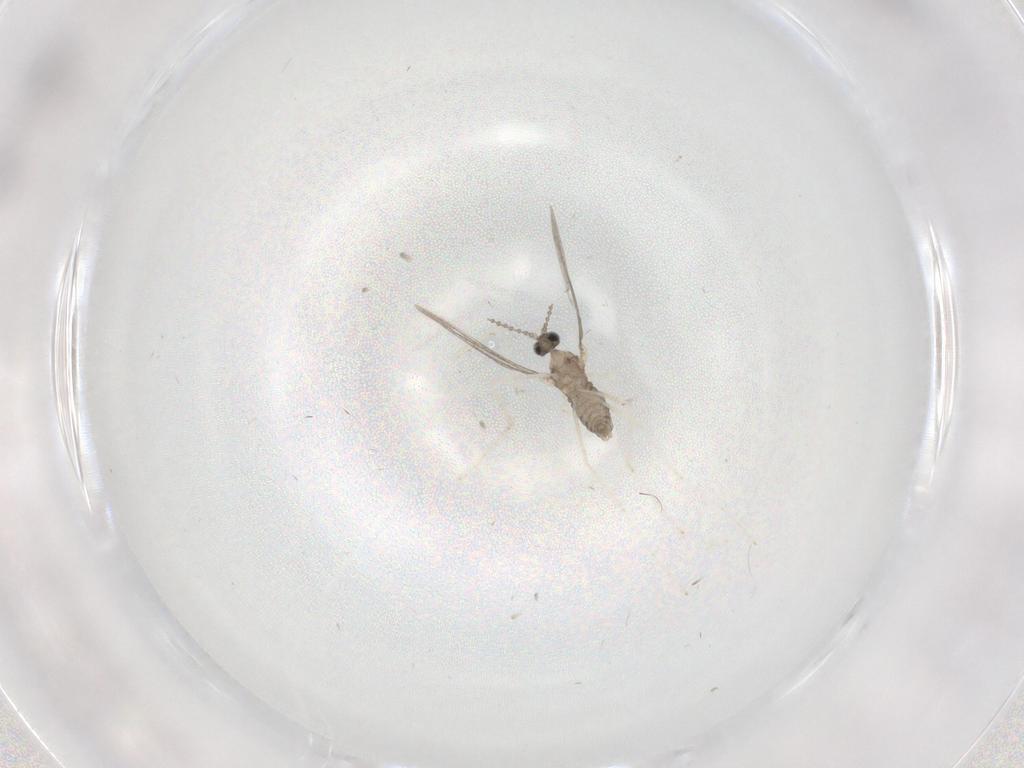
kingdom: Animalia
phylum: Arthropoda
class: Insecta
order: Diptera
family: Cecidomyiidae
